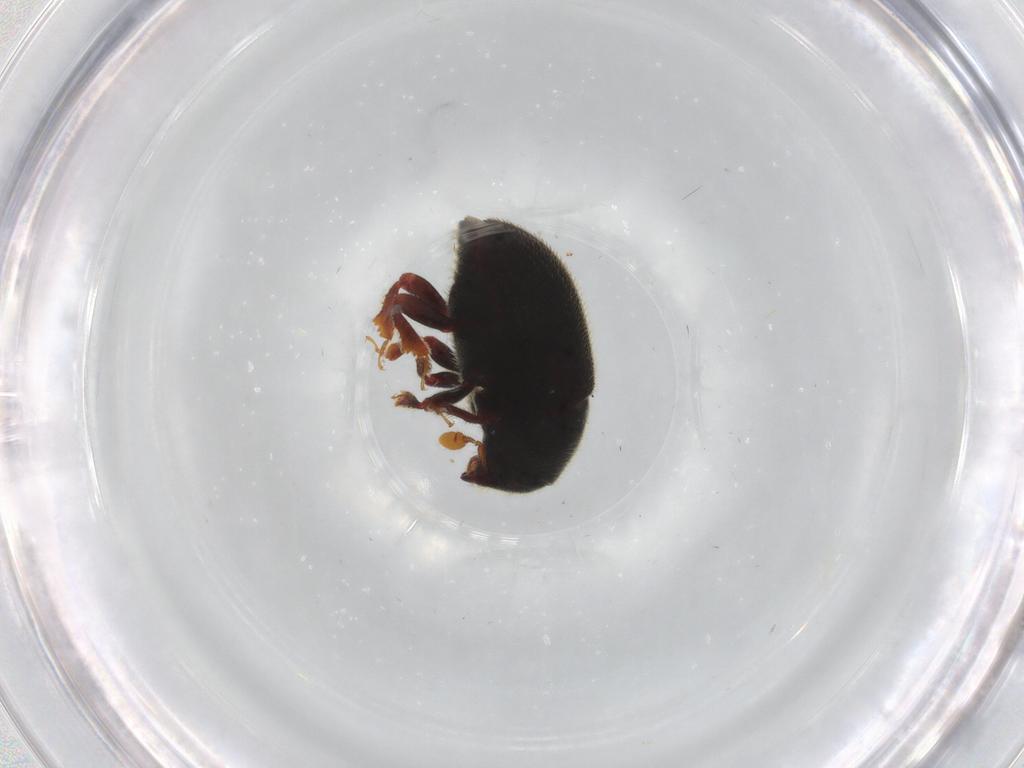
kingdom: Animalia
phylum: Arthropoda
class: Insecta
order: Coleoptera
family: Curculionidae
